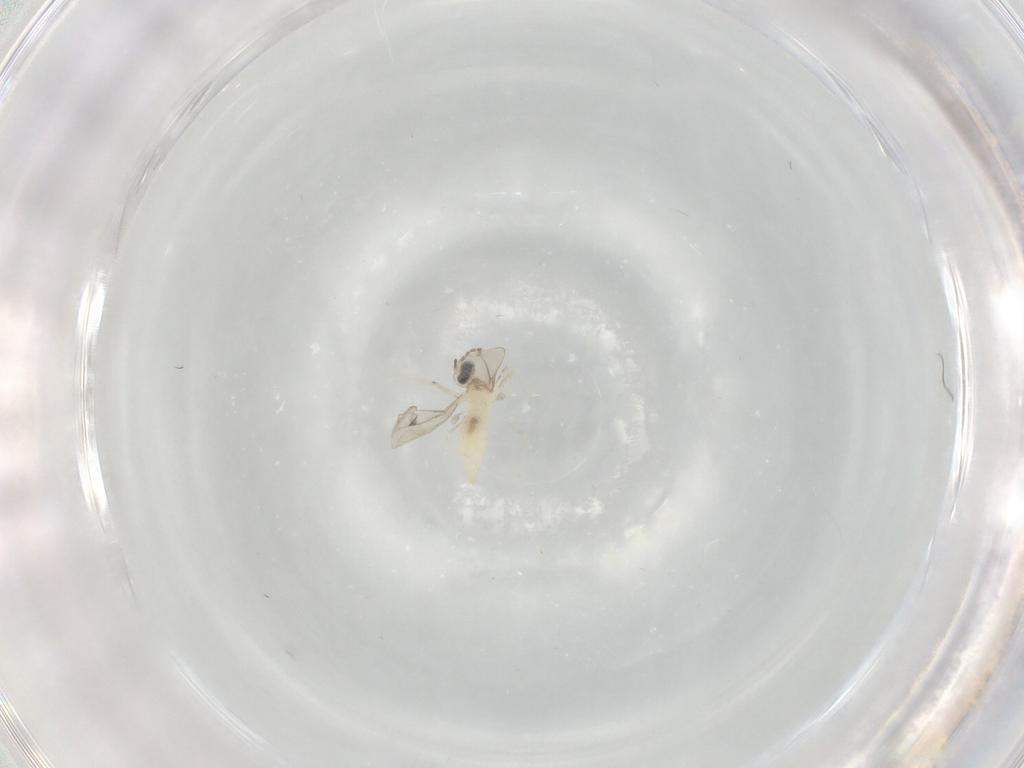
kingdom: Animalia
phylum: Arthropoda
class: Insecta
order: Diptera
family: Cecidomyiidae
